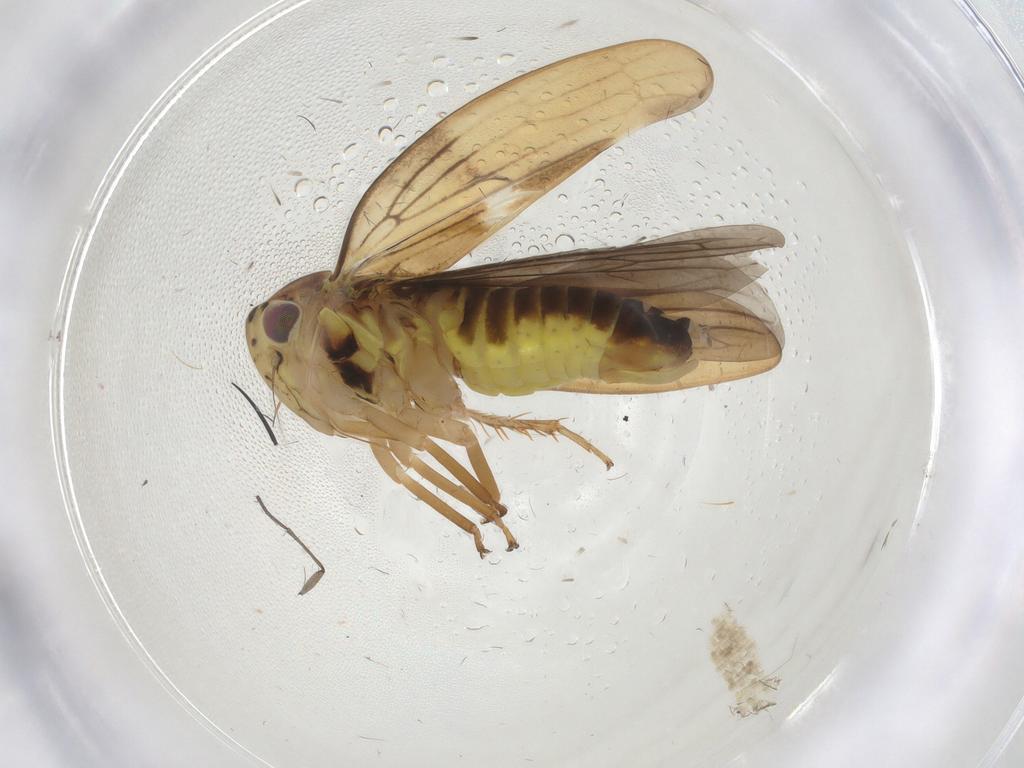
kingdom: Animalia
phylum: Arthropoda
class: Insecta
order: Hemiptera
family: Cicadellidae
